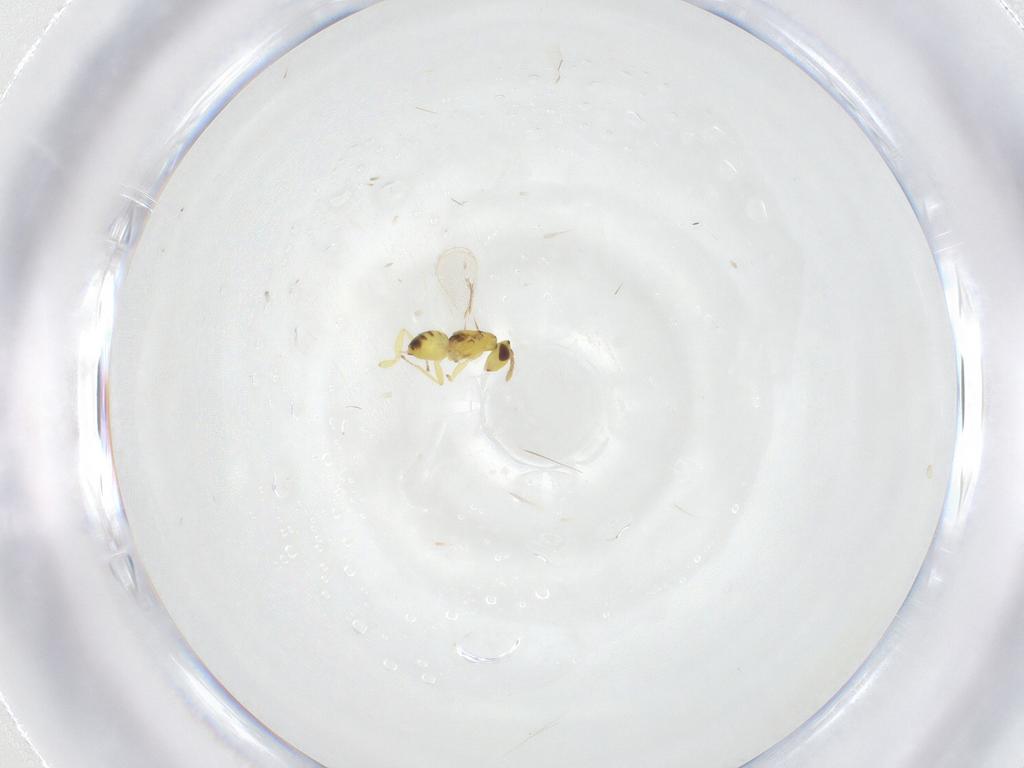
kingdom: Animalia
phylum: Arthropoda
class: Insecta
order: Hymenoptera
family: Eulophidae
